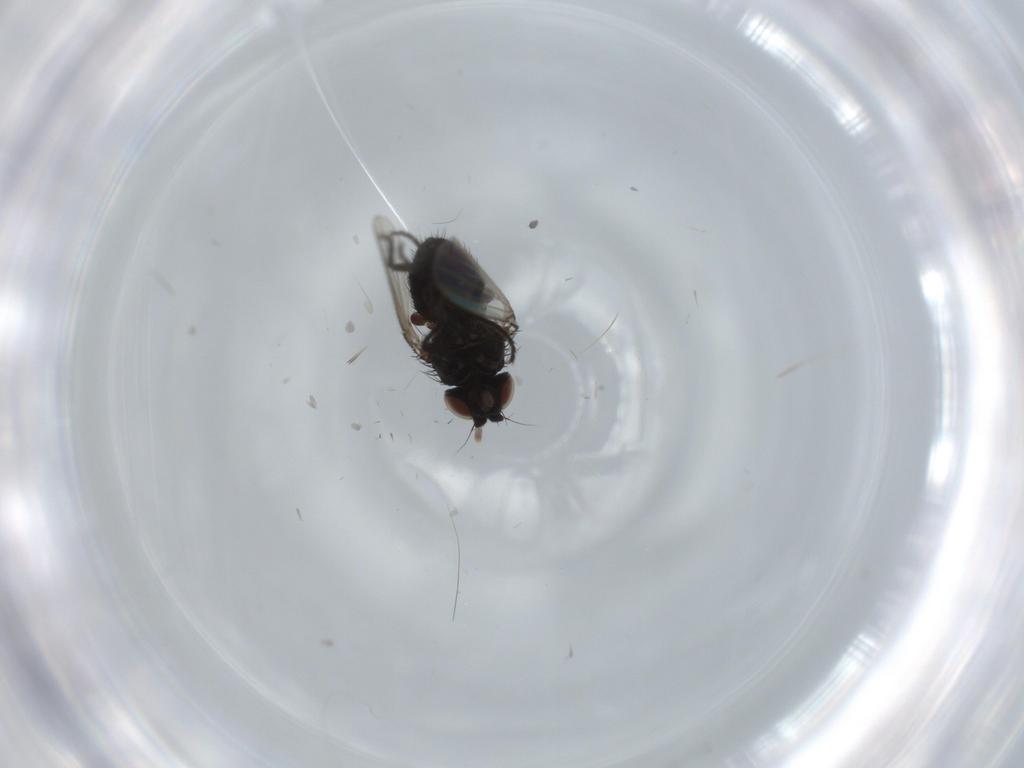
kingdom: Animalia
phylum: Arthropoda
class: Insecta
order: Diptera
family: Milichiidae
